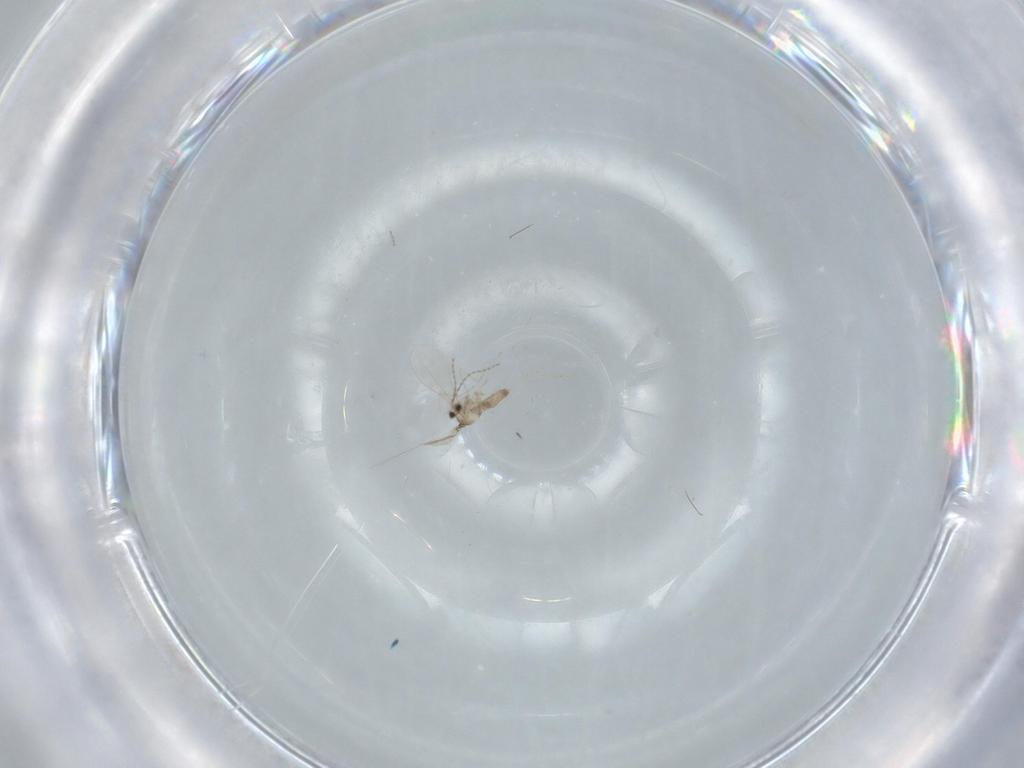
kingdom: Animalia
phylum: Arthropoda
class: Insecta
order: Diptera
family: Cecidomyiidae
